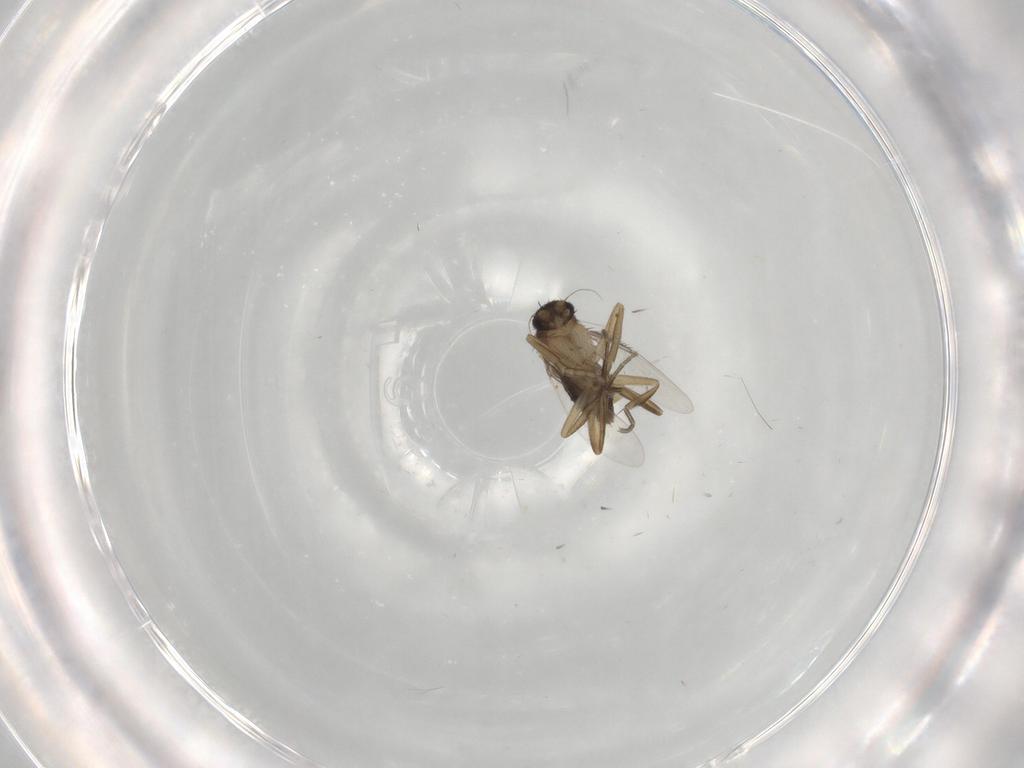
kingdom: Animalia
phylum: Arthropoda
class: Insecta
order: Diptera
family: Phoridae
